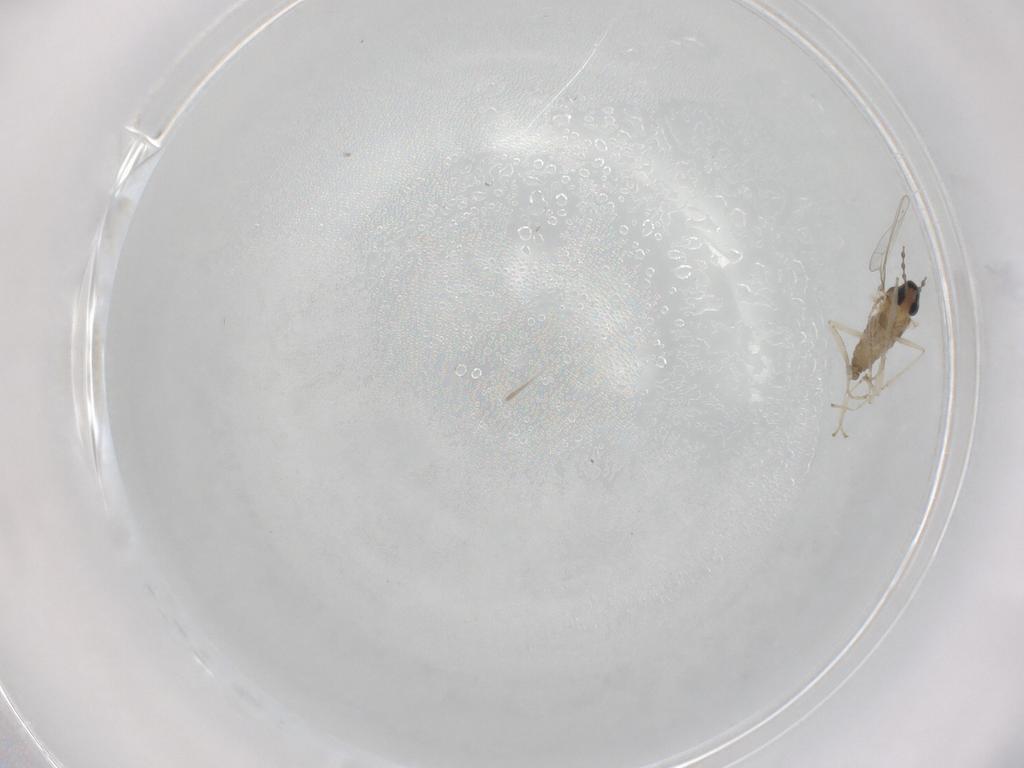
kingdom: Animalia
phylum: Arthropoda
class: Insecta
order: Diptera
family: Cecidomyiidae
